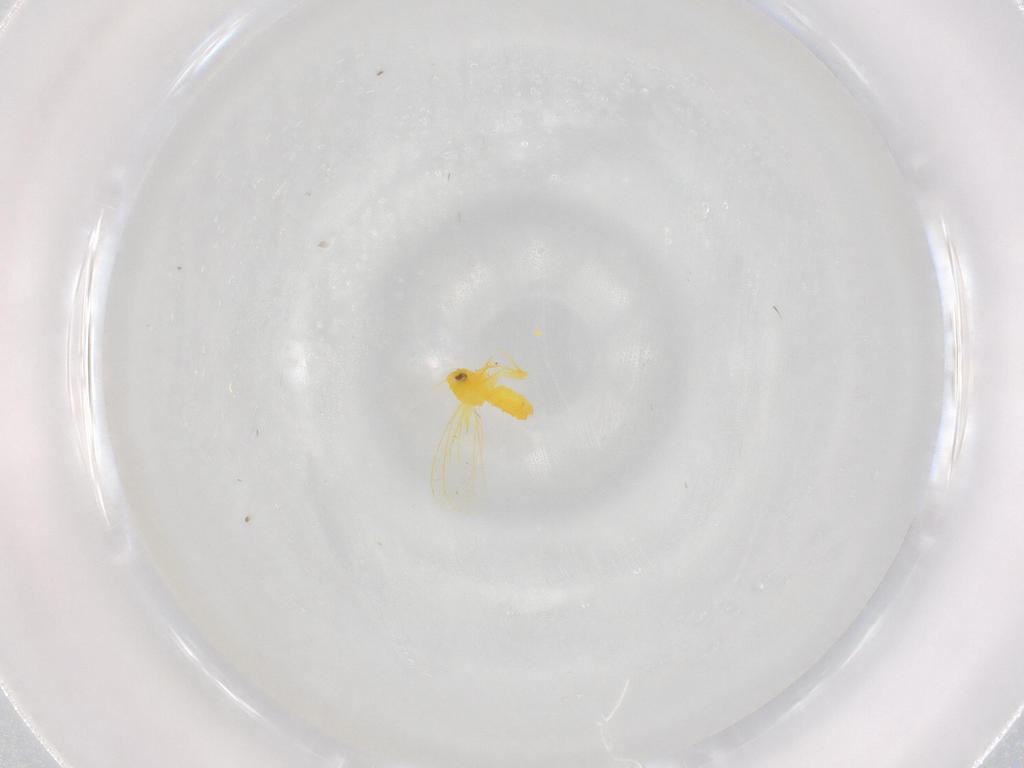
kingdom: Animalia
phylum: Arthropoda
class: Insecta
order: Hemiptera
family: Aleyrodidae
